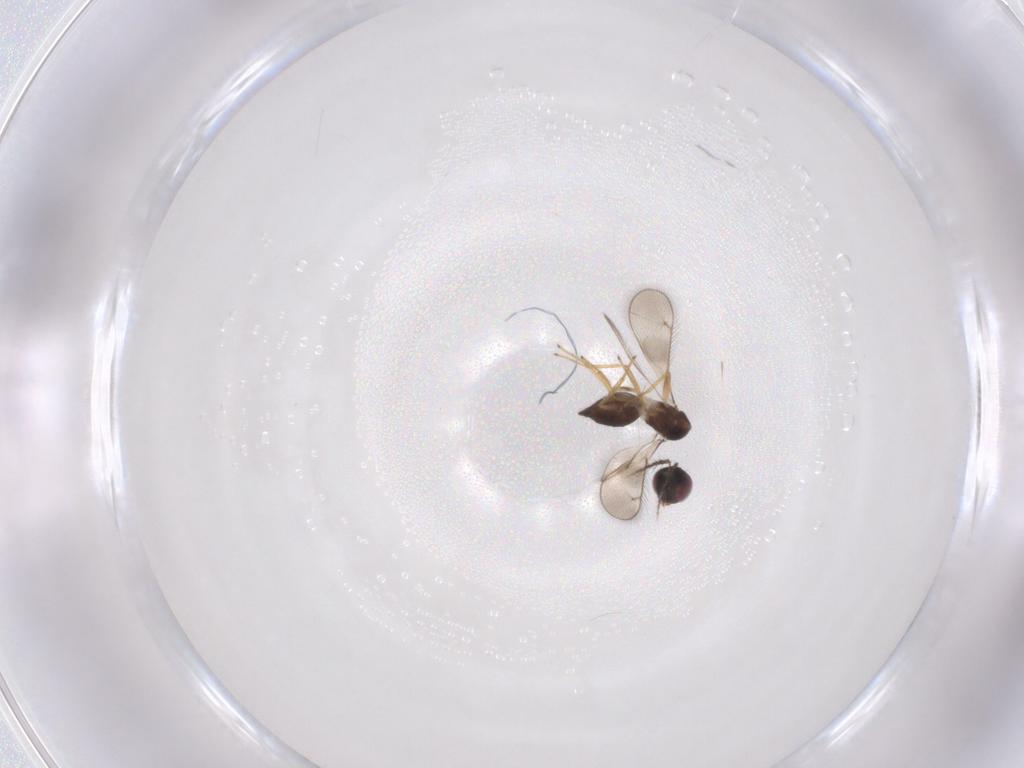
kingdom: Animalia
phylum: Arthropoda
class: Insecta
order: Hymenoptera
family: Eulophidae
